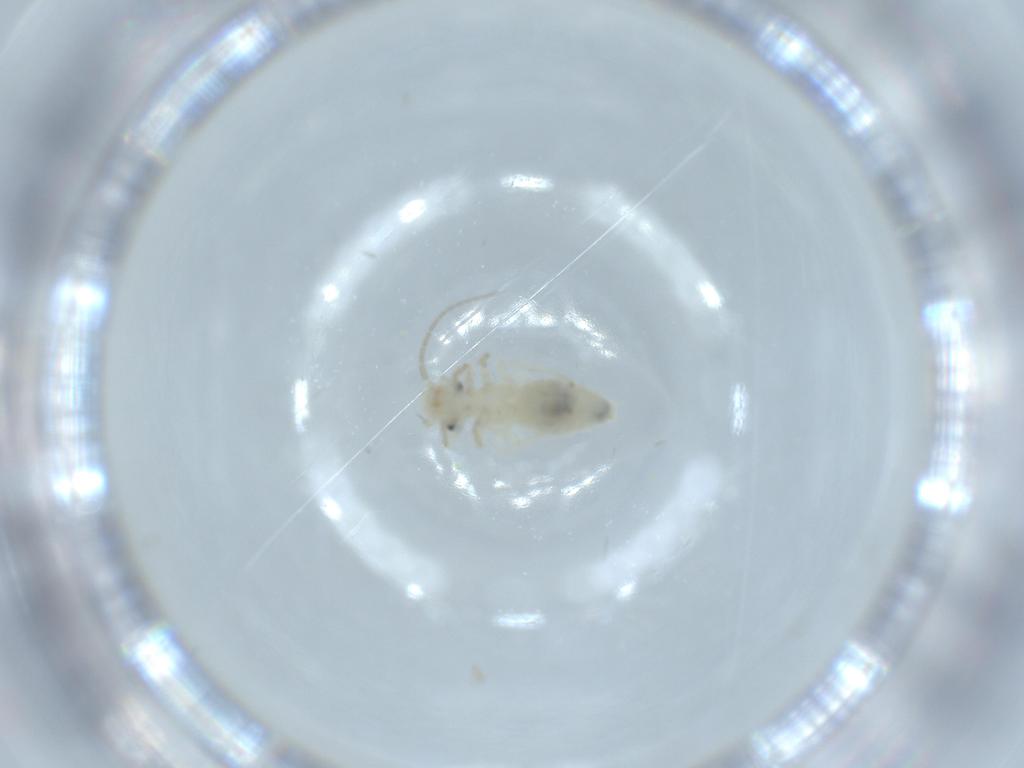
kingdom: Animalia
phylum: Arthropoda
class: Insecta
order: Psocodea
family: Caeciliusidae
